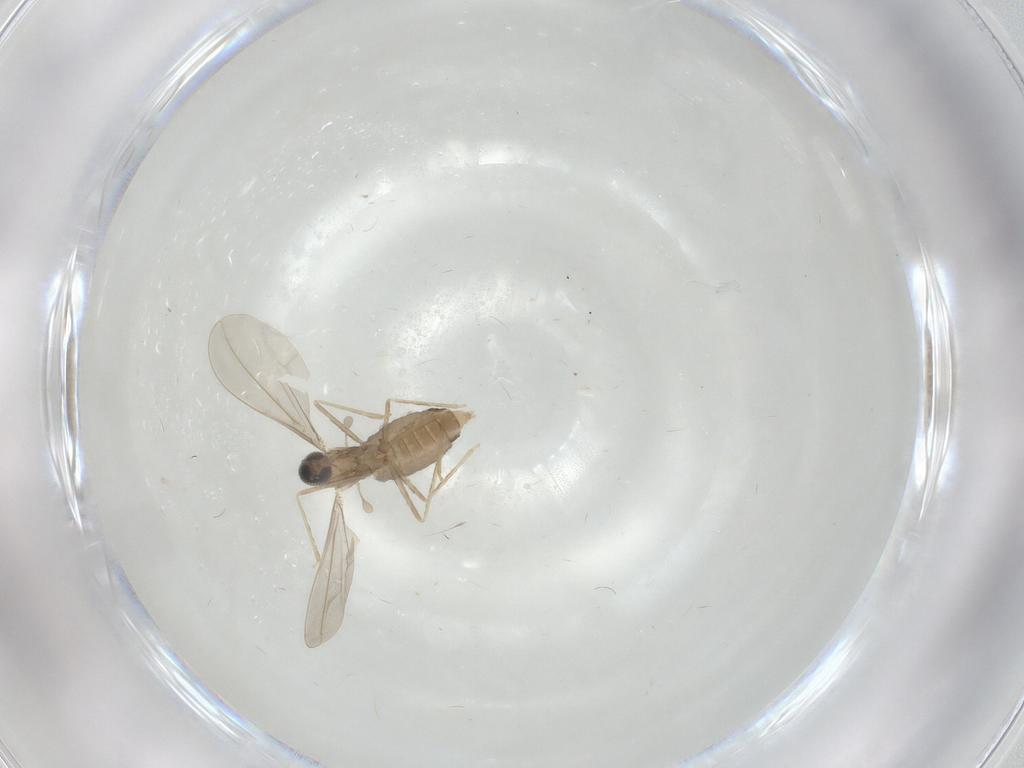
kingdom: Animalia
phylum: Arthropoda
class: Insecta
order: Diptera
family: Cecidomyiidae
